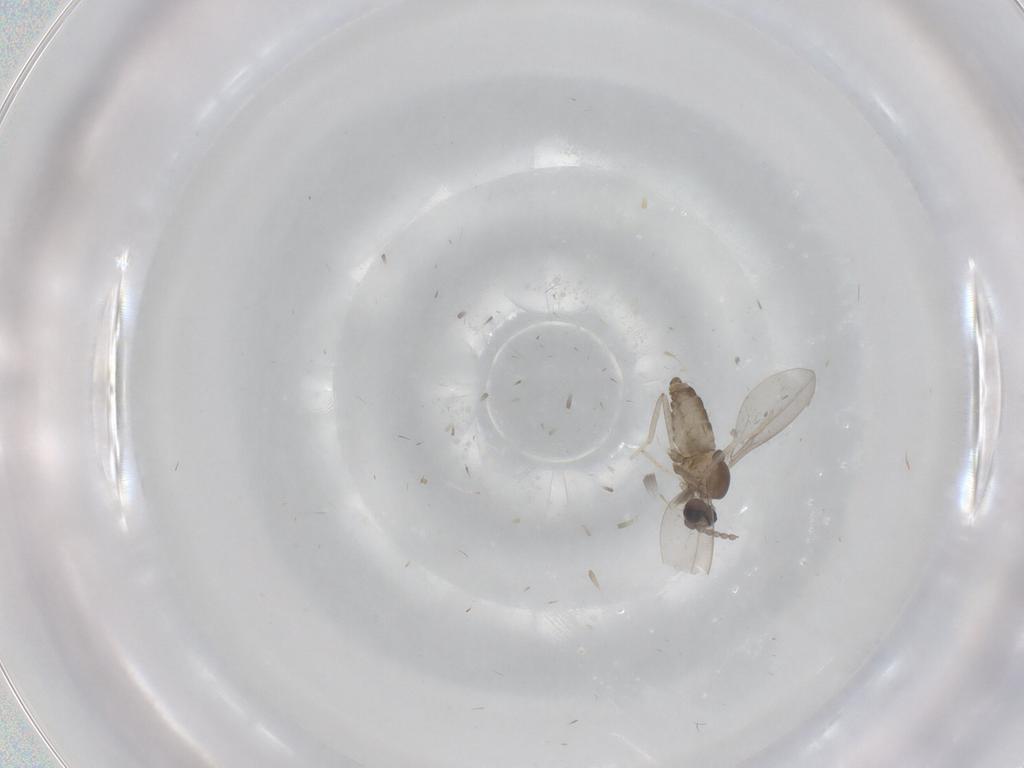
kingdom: Animalia
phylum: Arthropoda
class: Insecta
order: Diptera
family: Cecidomyiidae
